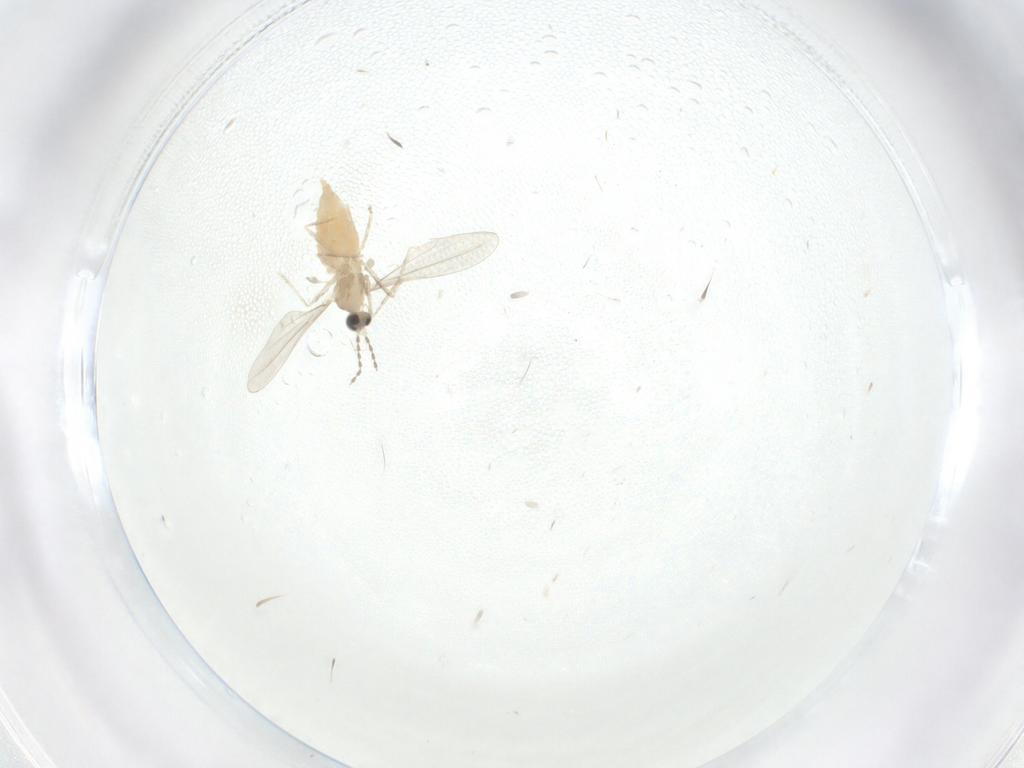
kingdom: Animalia
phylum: Arthropoda
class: Insecta
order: Diptera
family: Cecidomyiidae
